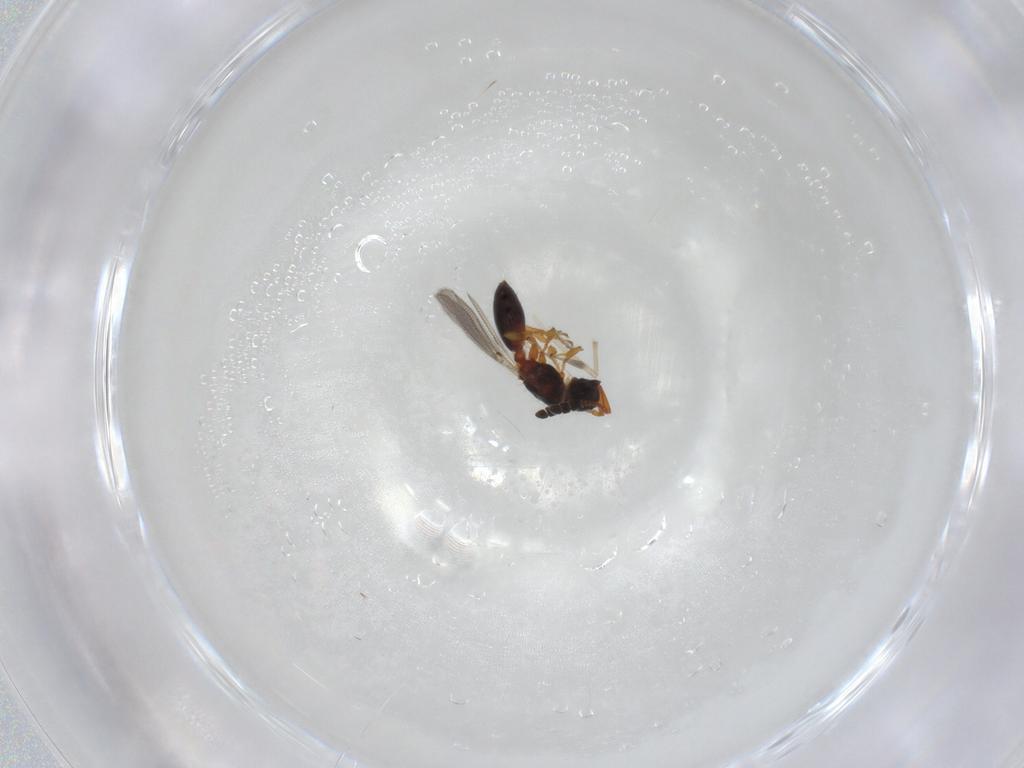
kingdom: Animalia
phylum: Arthropoda
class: Insecta
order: Hymenoptera
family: Diapriidae
